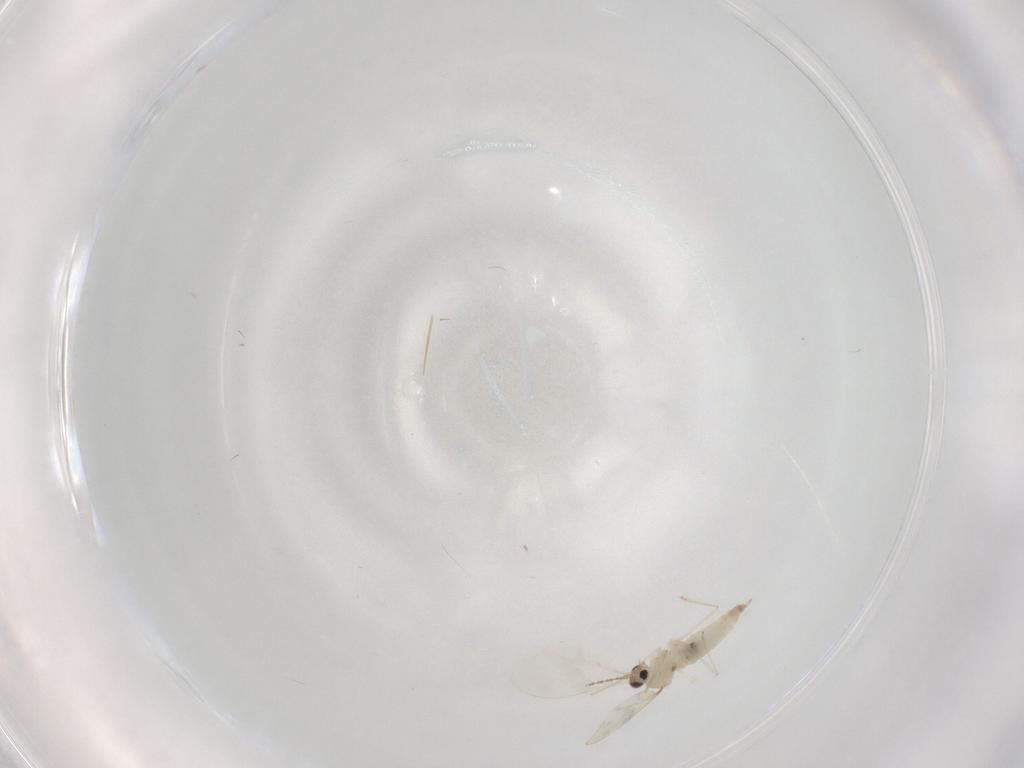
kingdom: Animalia
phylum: Arthropoda
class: Insecta
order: Diptera
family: Cecidomyiidae
